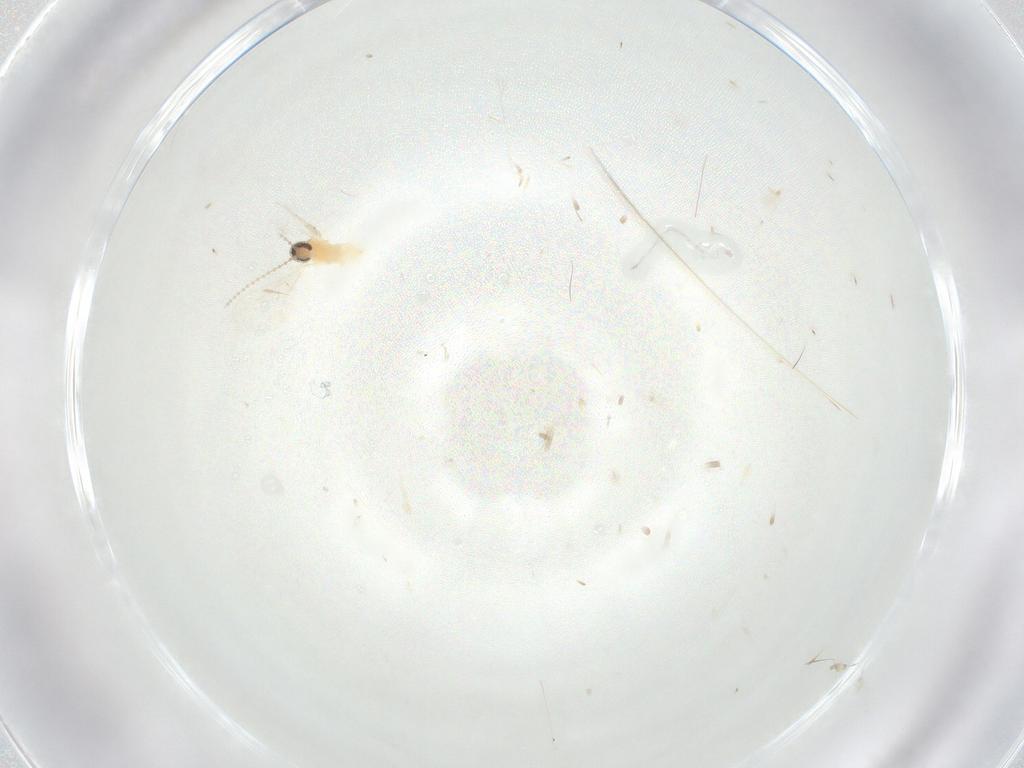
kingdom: Animalia
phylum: Arthropoda
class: Insecta
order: Diptera
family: Cecidomyiidae
